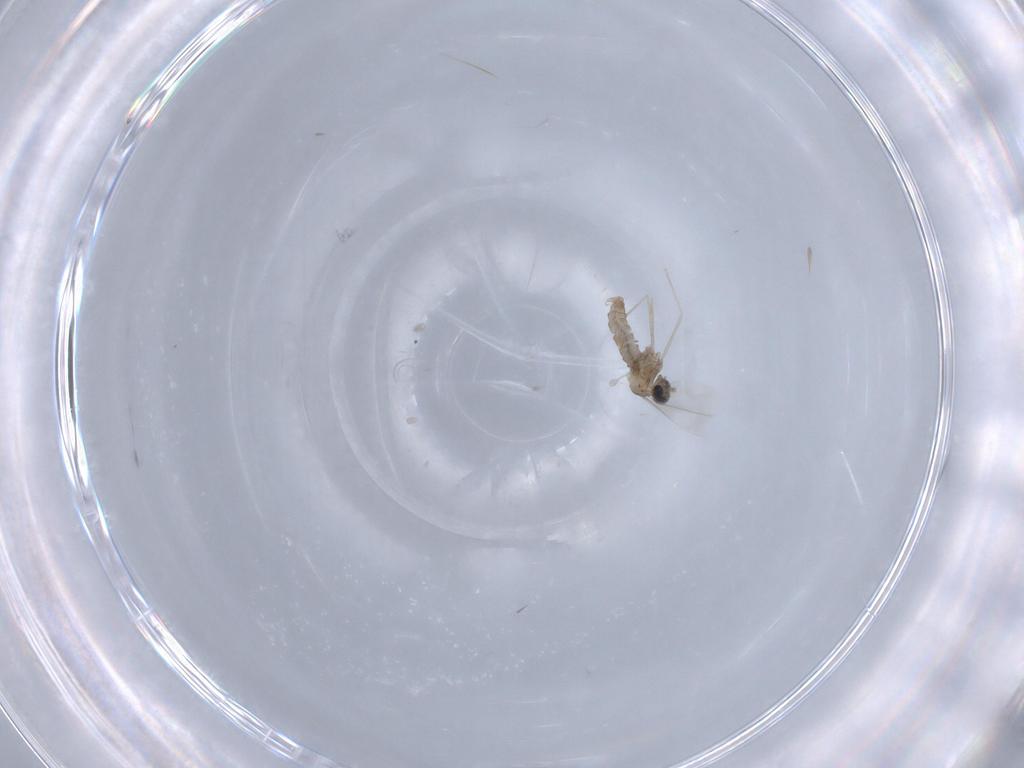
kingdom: Animalia
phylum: Arthropoda
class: Insecta
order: Diptera
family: Cecidomyiidae
